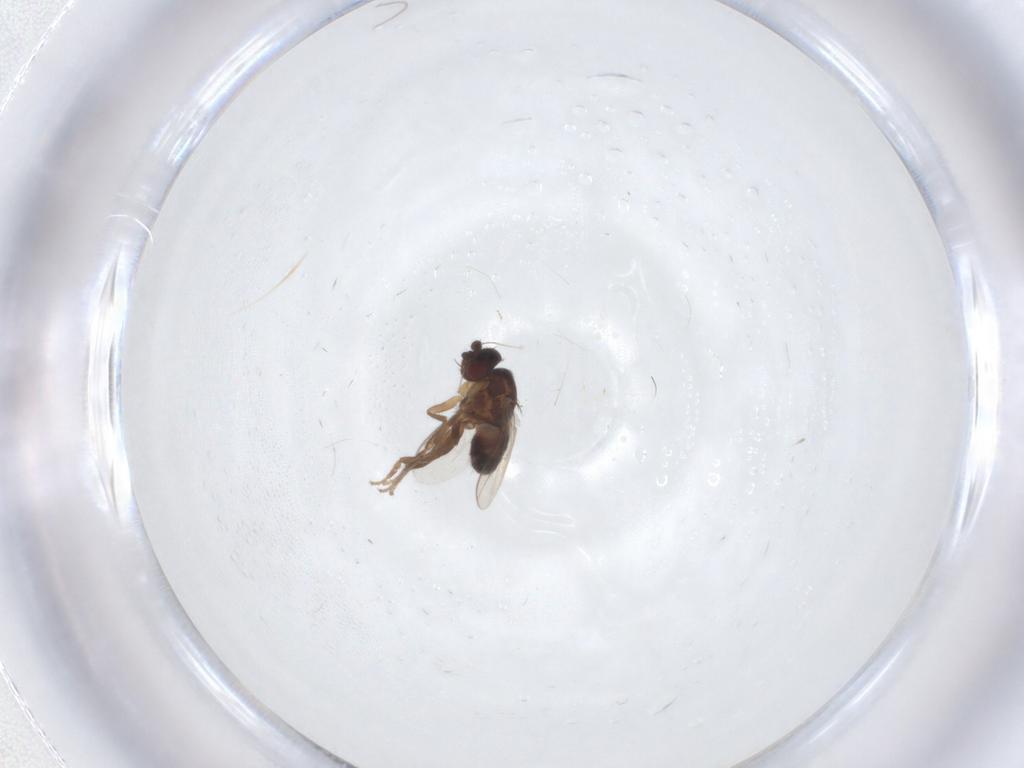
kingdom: Animalia
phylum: Arthropoda
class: Insecta
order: Diptera
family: Sphaeroceridae
